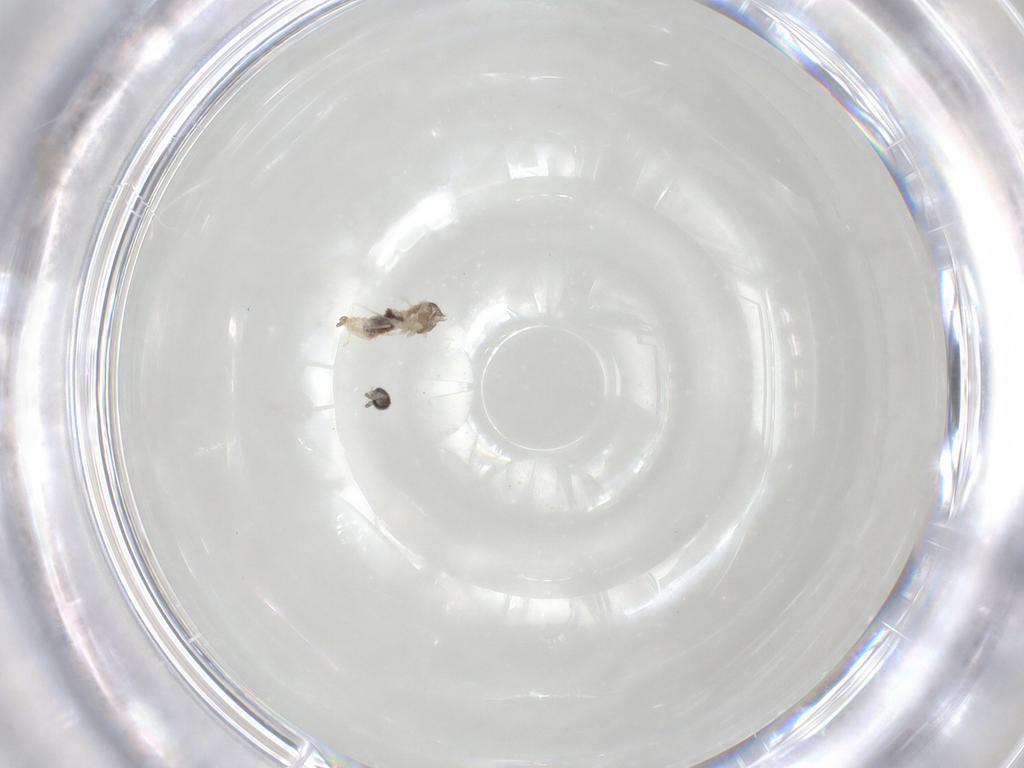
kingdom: Animalia
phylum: Arthropoda
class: Insecta
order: Diptera
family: Cecidomyiidae
